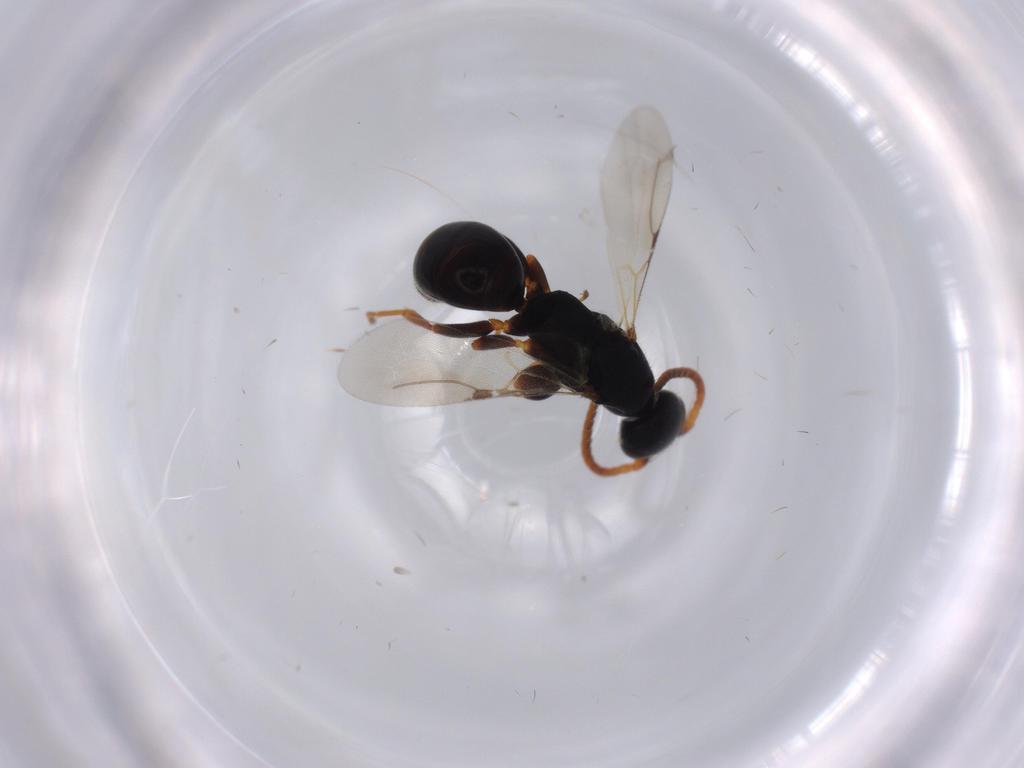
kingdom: Animalia
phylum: Arthropoda
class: Insecta
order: Hymenoptera
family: Bethylidae
